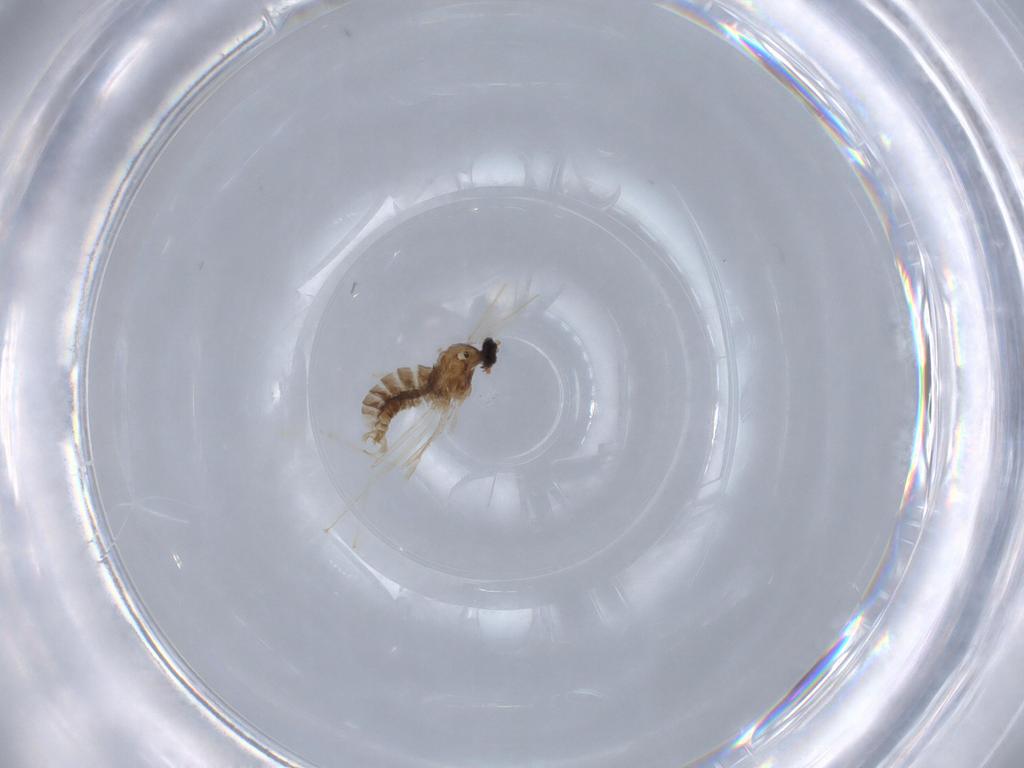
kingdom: Animalia
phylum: Arthropoda
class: Insecta
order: Diptera
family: Cecidomyiidae
